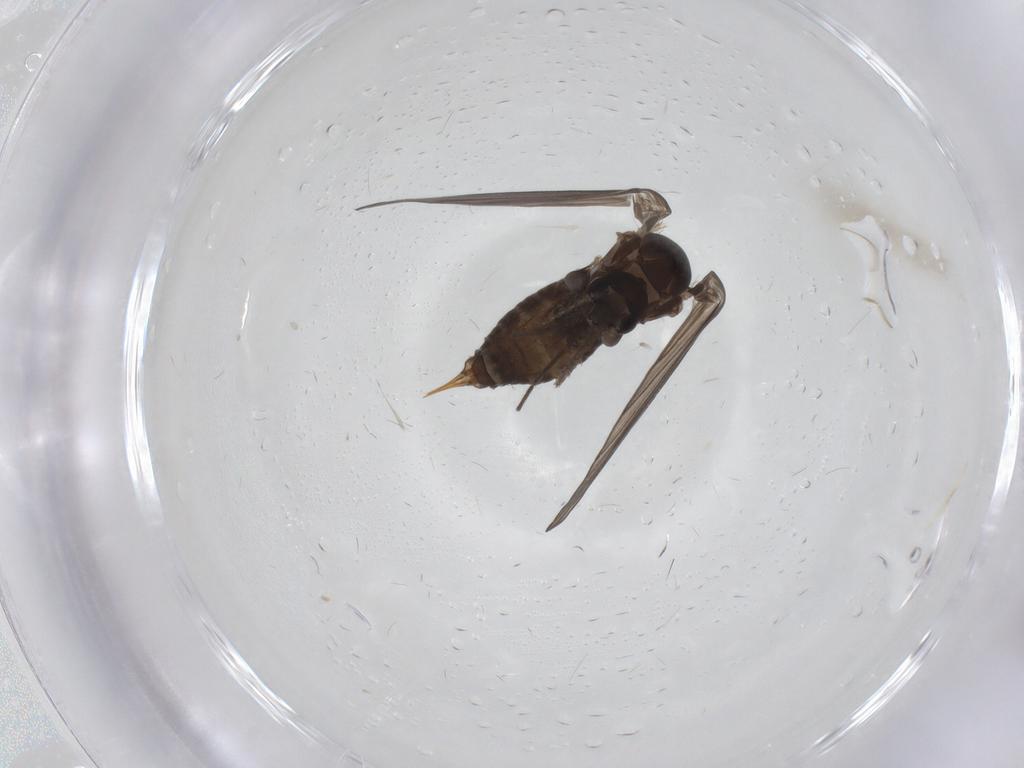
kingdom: Animalia
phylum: Arthropoda
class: Insecta
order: Diptera
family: Psychodidae
